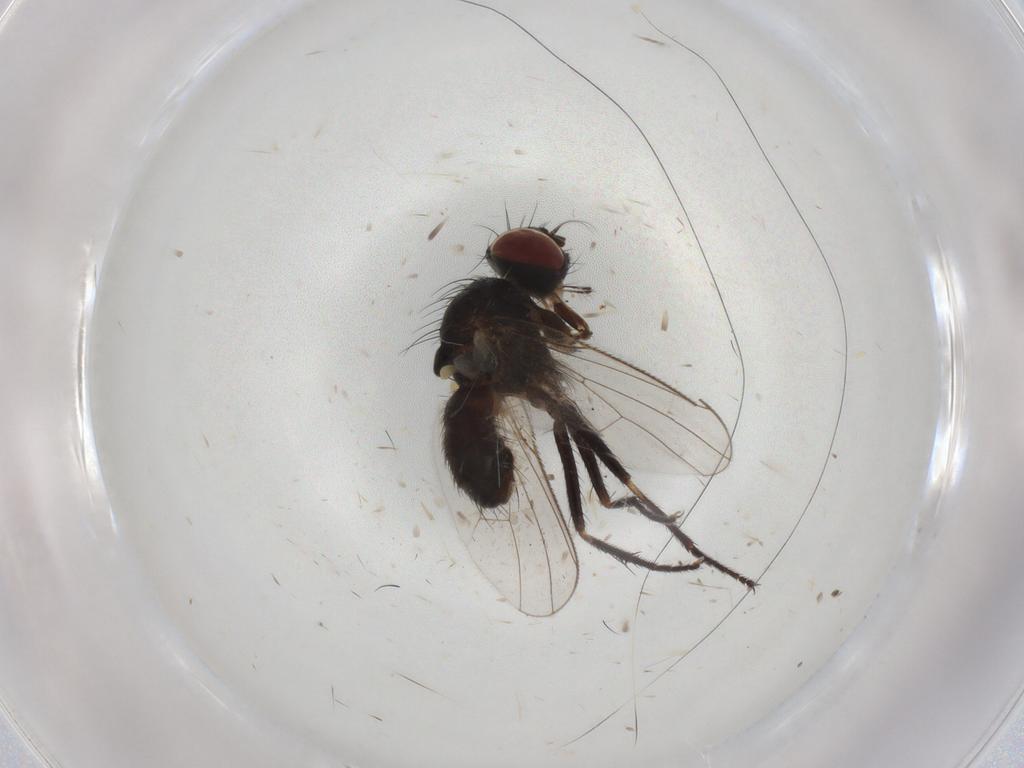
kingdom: Animalia
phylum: Arthropoda
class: Insecta
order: Diptera
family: Muscidae
